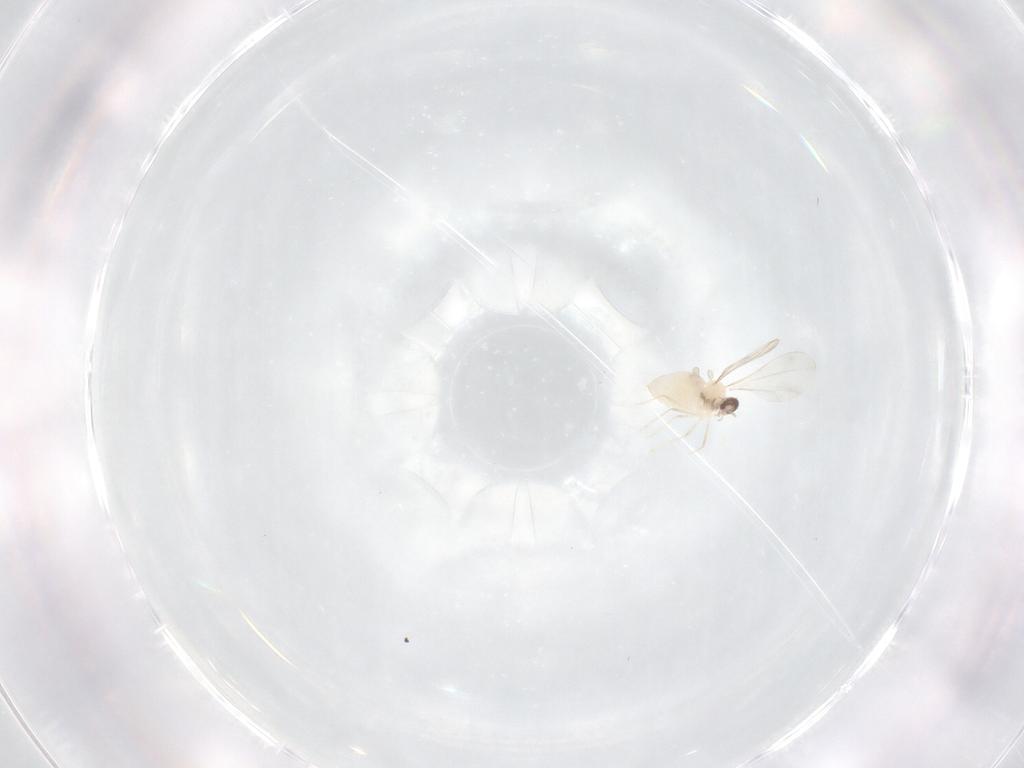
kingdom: Animalia
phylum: Arthropoda
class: Insecta
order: Diptera
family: Cecidomyiidae
